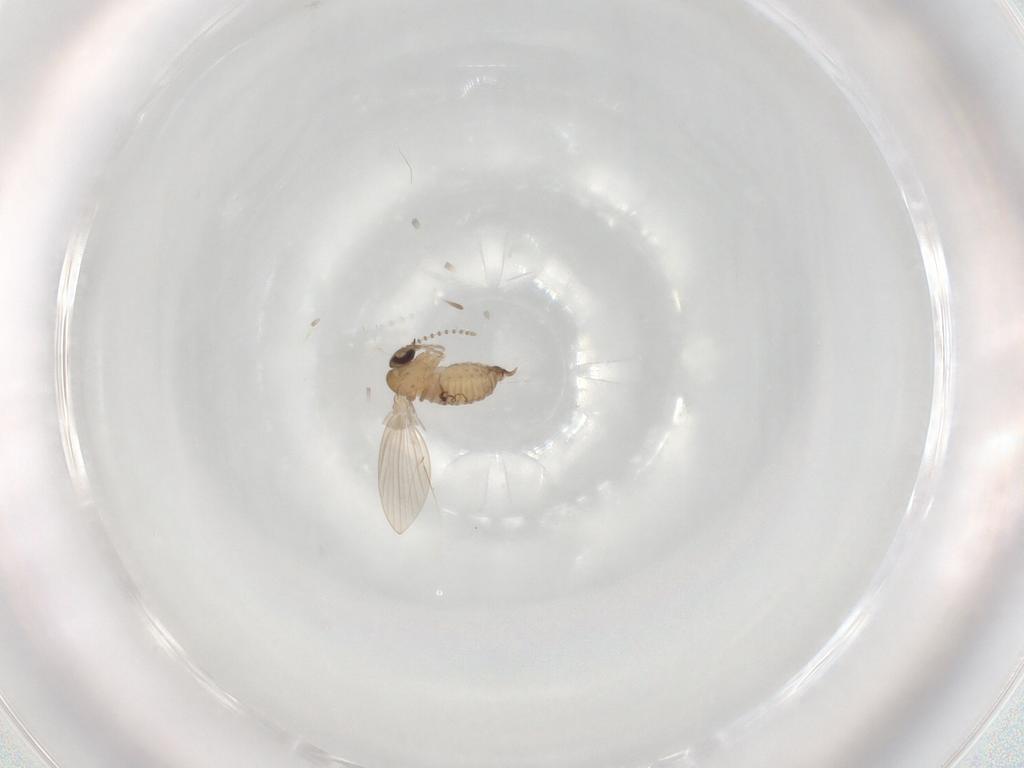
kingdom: Animalia
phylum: Arthropoda
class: Insecta
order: Diptera
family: Psychodidae
